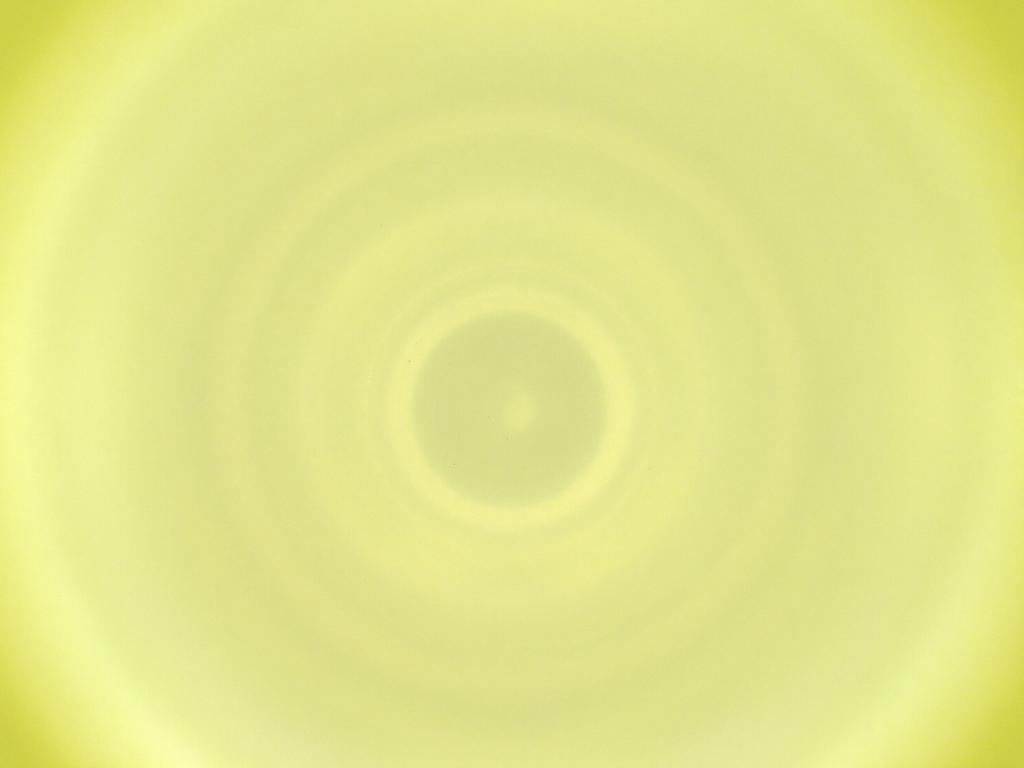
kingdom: Animalia
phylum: Arthropoda
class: Insecta
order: Diptera
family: Cecidomyiidae
